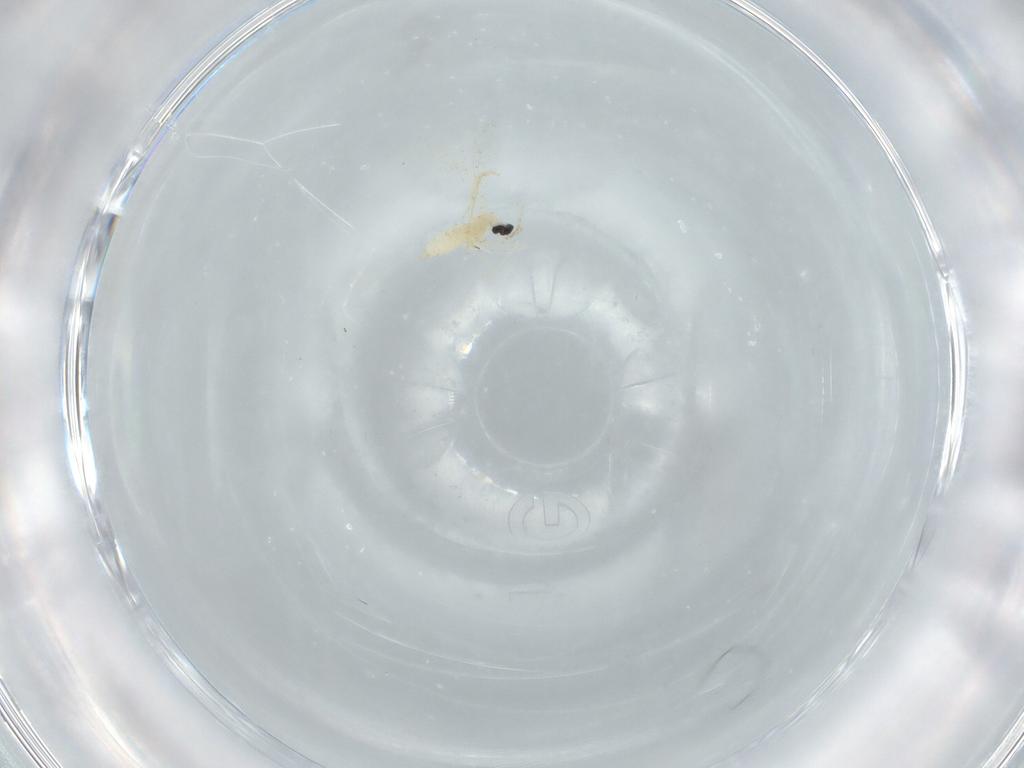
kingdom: Animalia
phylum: Arthropoda
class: Insecta
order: Diptera
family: Cecidomyiidae
